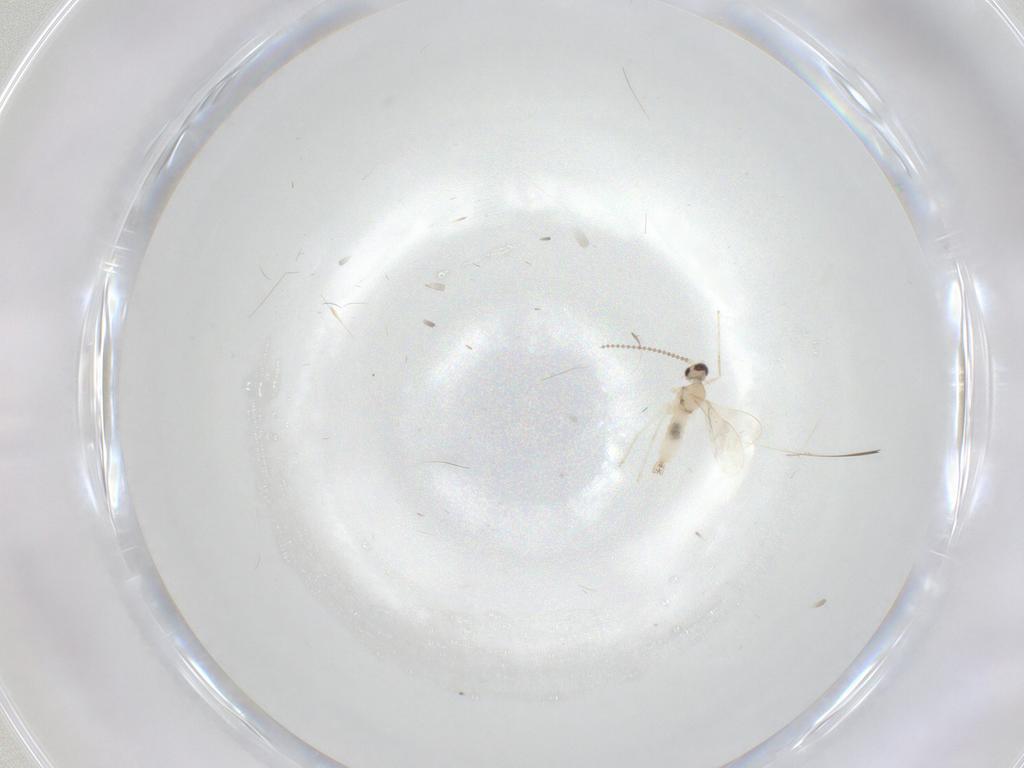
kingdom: Animalia
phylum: Arthropoda
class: Insecta
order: Diptera
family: Cecidomyiidae
